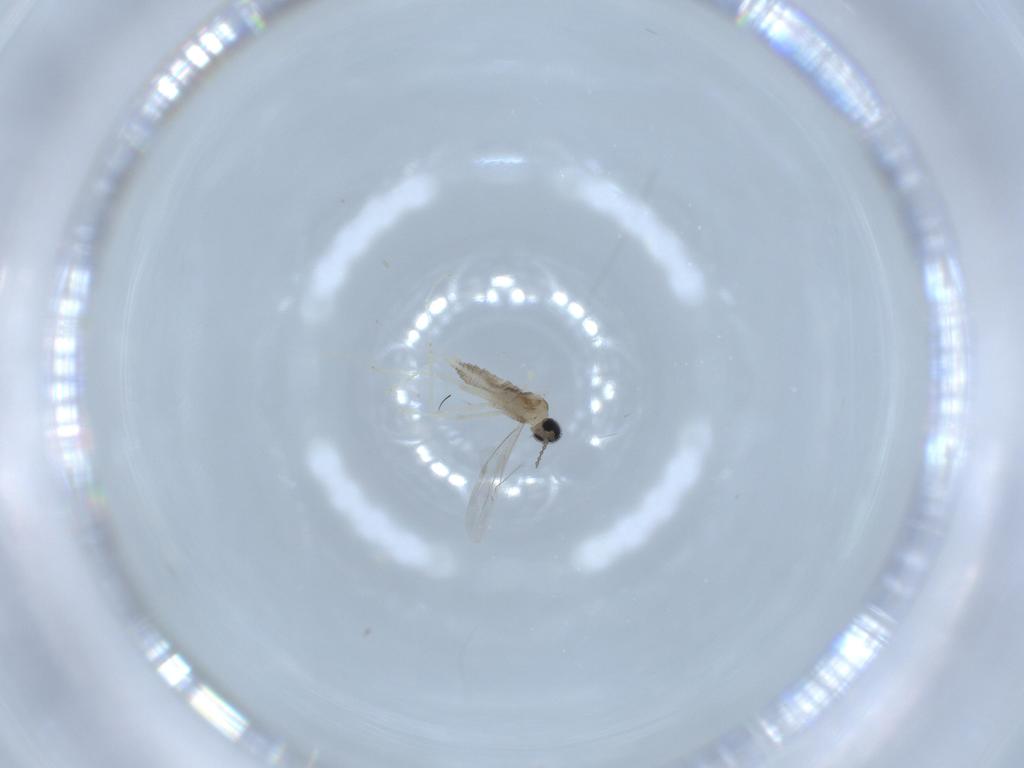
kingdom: Animalia
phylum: Arthropoda
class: Insecta
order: Diptera
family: Cecidomyiidae
